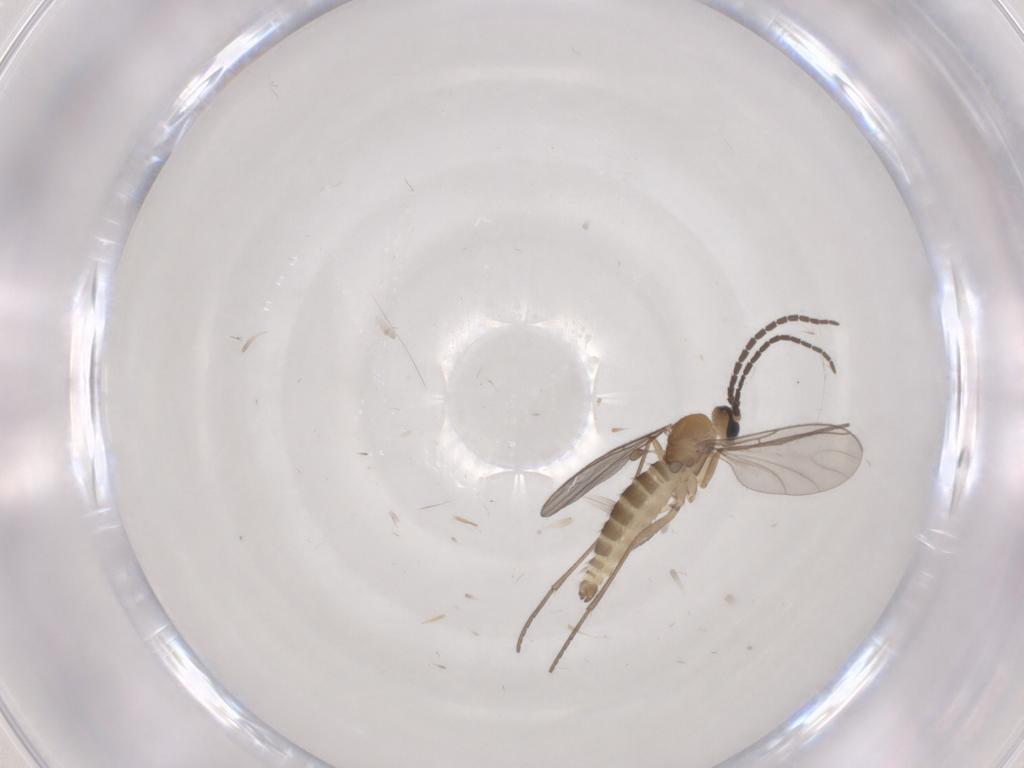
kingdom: Animalia
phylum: Arthropoda
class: Insecta
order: Diptera
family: Sciaridae
